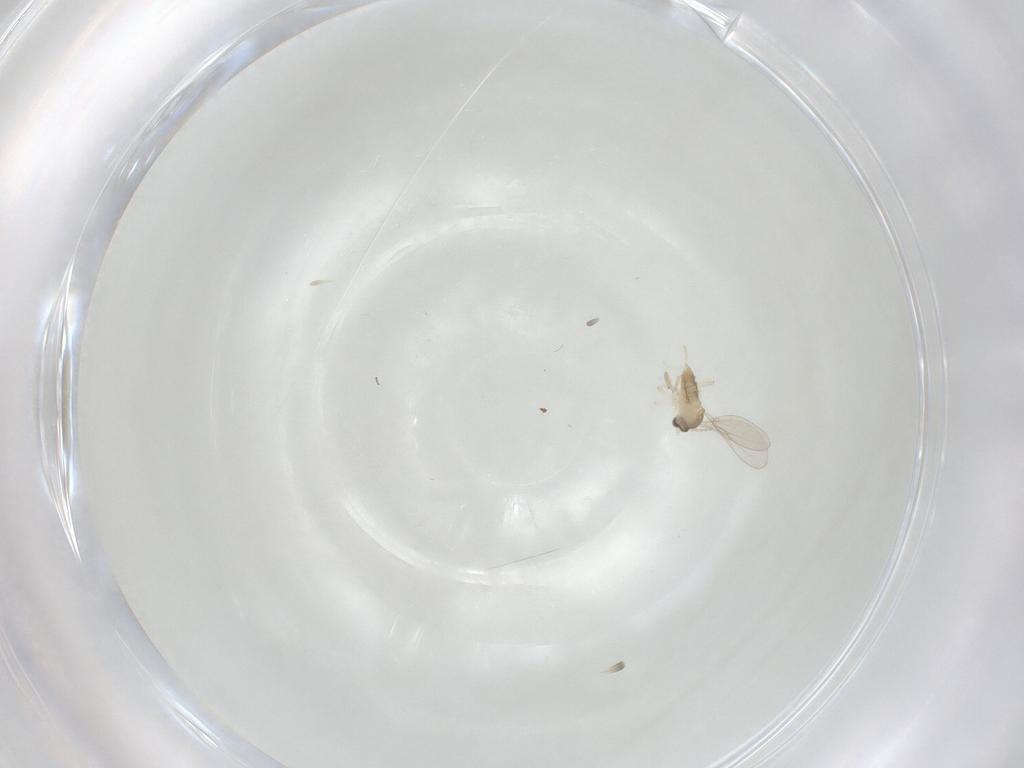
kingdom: Animalia
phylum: Arthropoda
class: Insecta
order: Diptera
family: Cecidomyiidae
